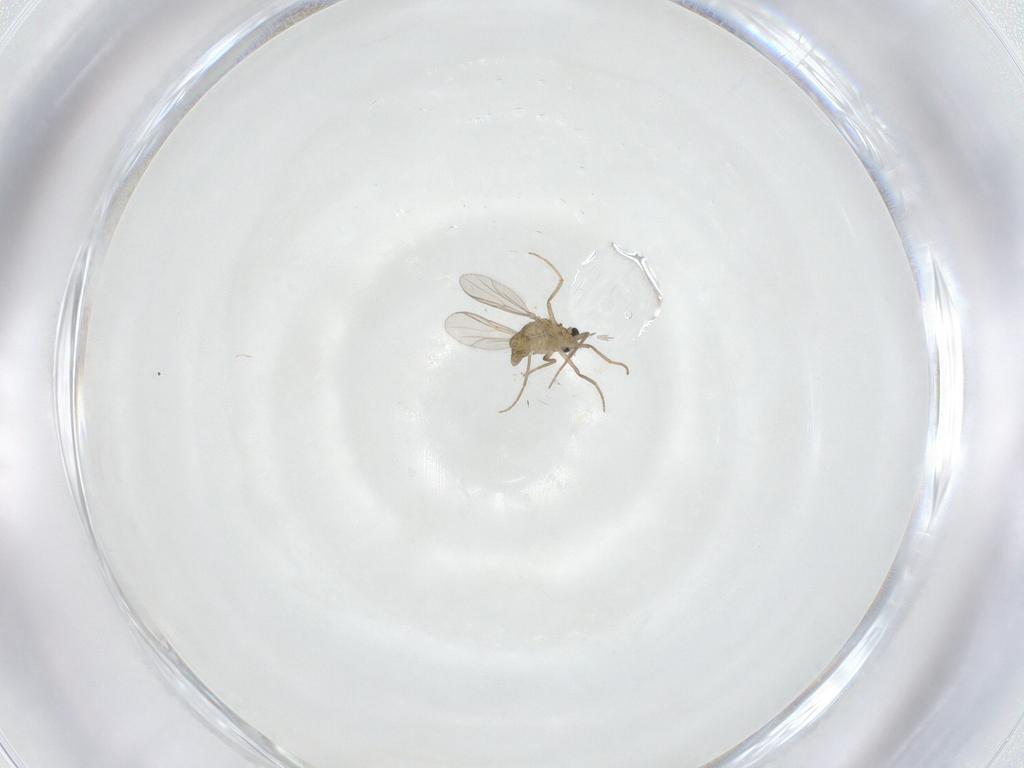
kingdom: Animalia
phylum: Arthropoda
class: Insecta
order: Diptera
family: Chironomidae
